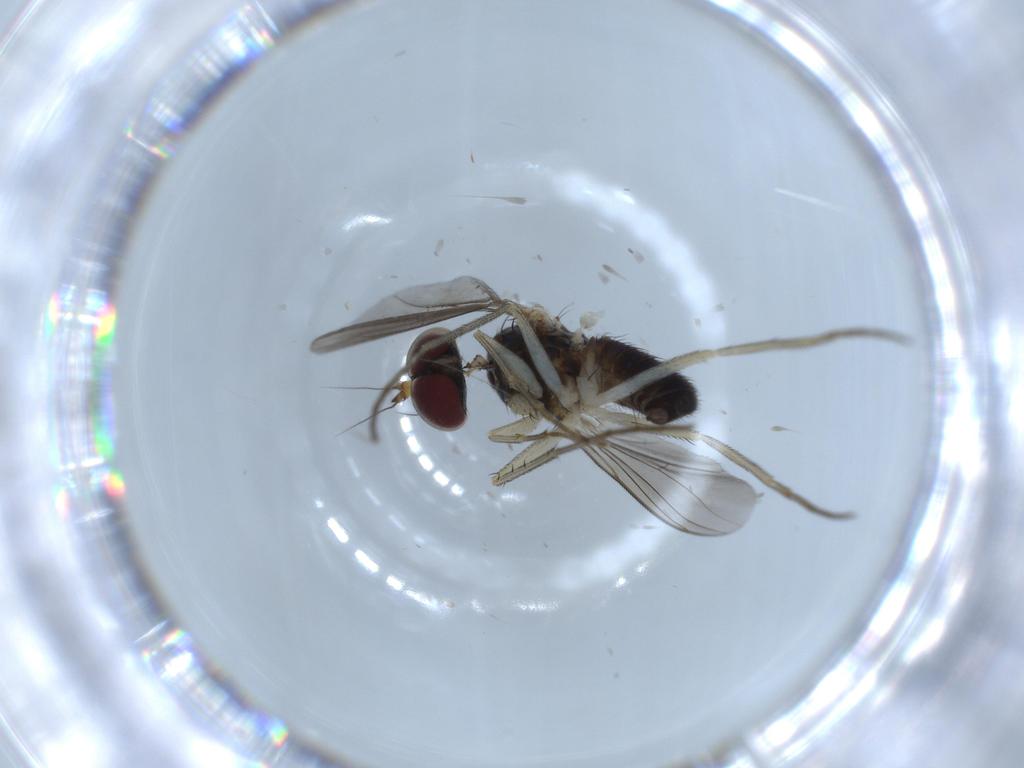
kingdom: Animalia
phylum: Arthropoda
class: Insecta
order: Diptera
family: Dolichopodidae
